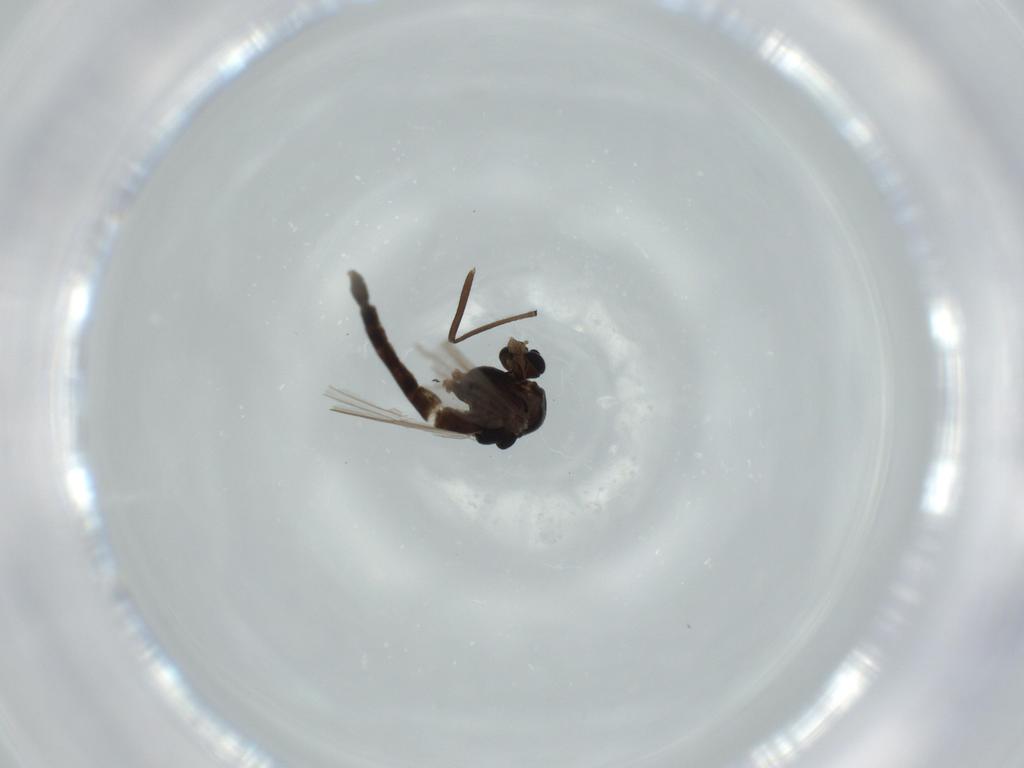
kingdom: Animalia
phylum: Arthropoda
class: Insecta
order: Diptera
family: Chironomidae
